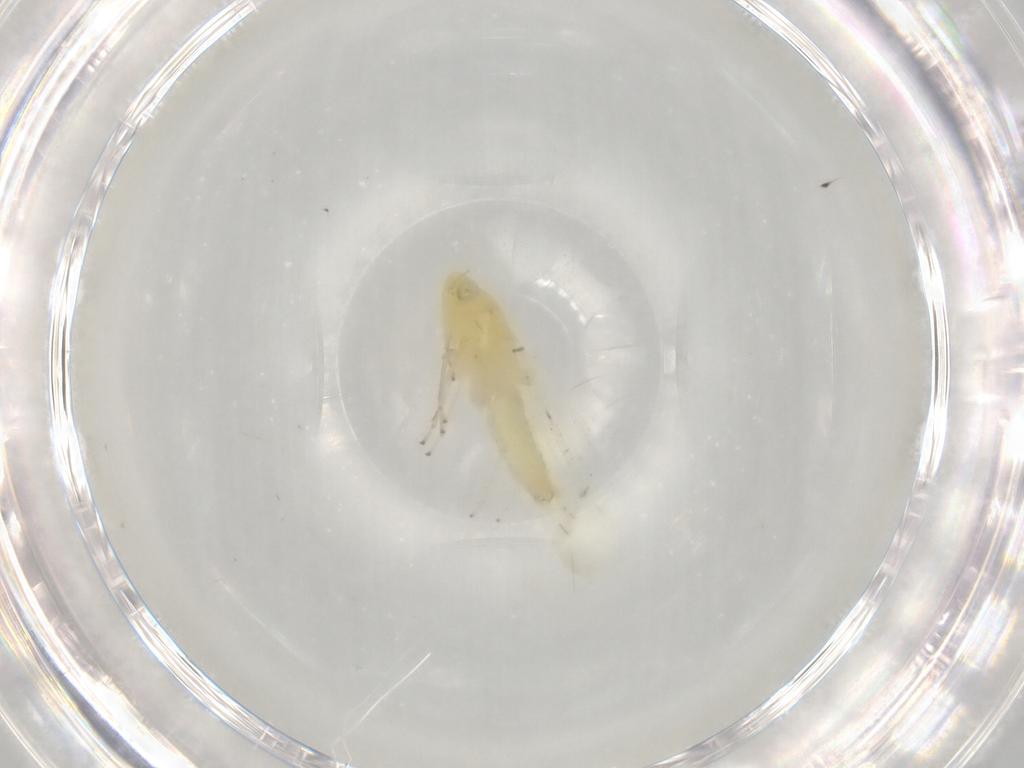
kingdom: Animalia
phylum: Arthropoda
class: Insecta
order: Hemiptera
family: Cicadellidae
